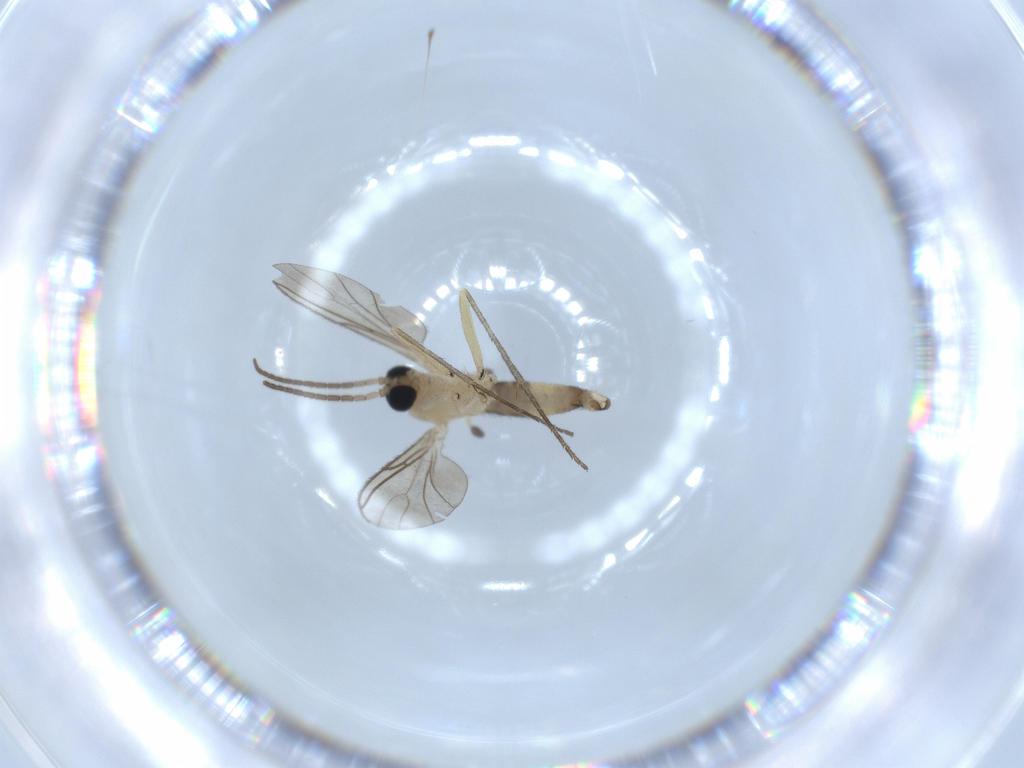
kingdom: Animalia
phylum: Arthropoda
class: Insecta
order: Diptera
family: Sciaridae
